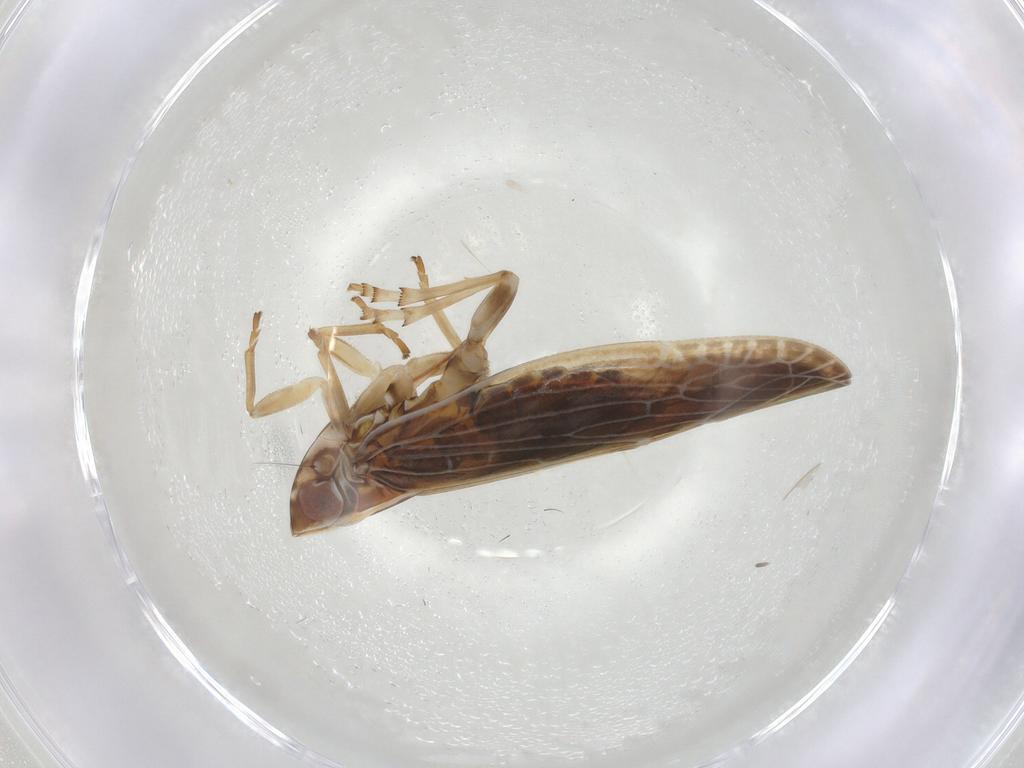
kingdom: Animalia
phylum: Arthropoda
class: Insecta
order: Hemiptera
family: Achilidae
